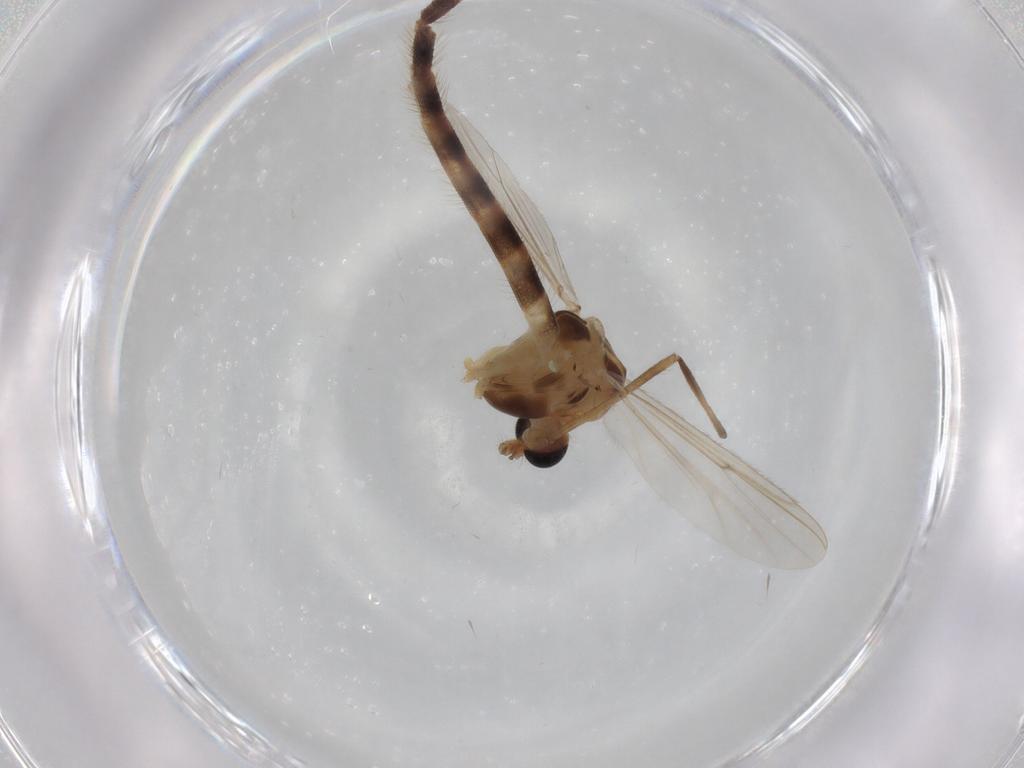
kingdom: Animalia
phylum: Arthropoda
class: Insecta
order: Diptera
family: Chironomidae
